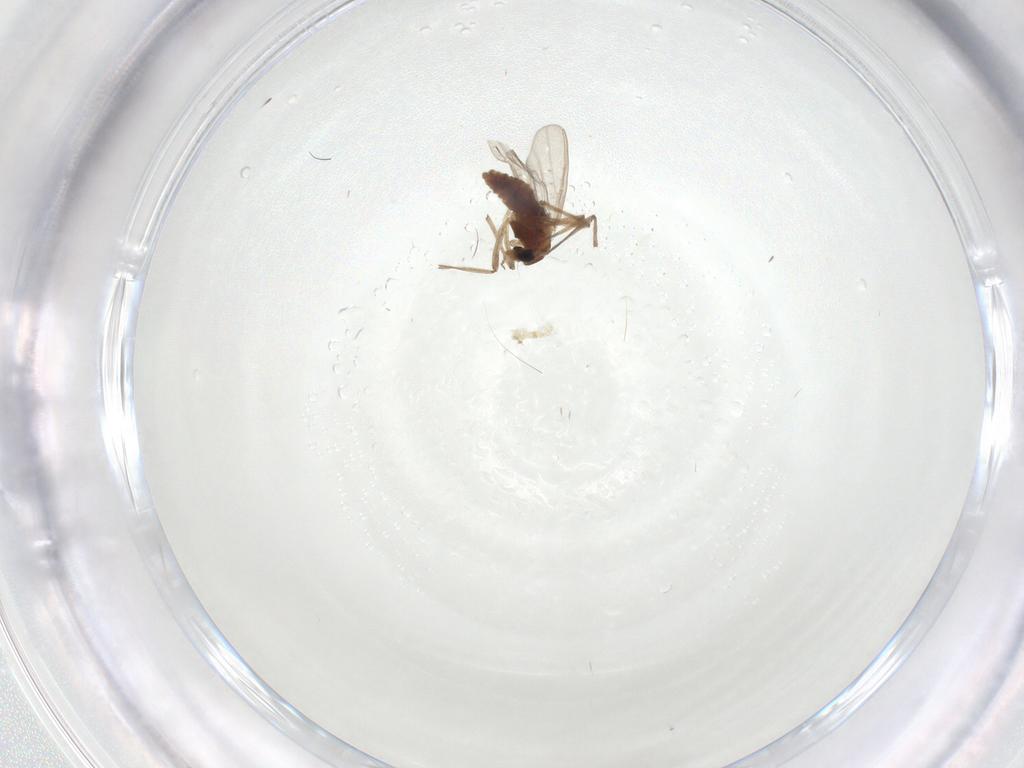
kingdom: Animalia
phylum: Arthropoda
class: Insecta
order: Diptera
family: Chironomidae
